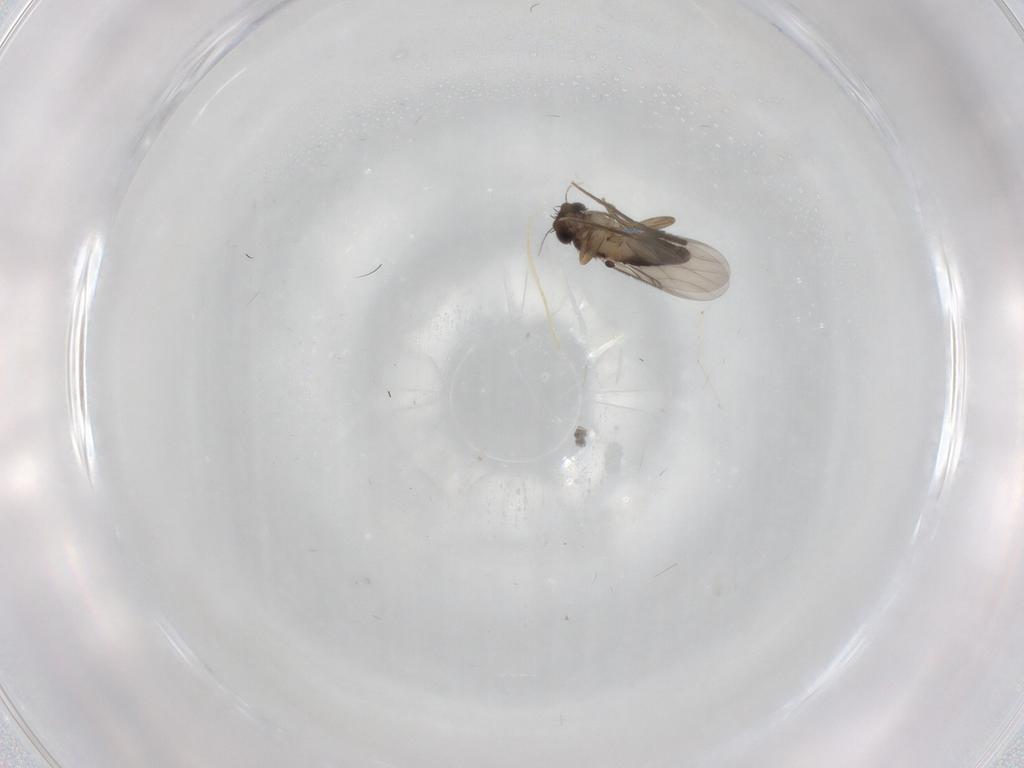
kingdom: Animalia
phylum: Arthropoda
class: Insecta
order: Diptera
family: Phoridae
